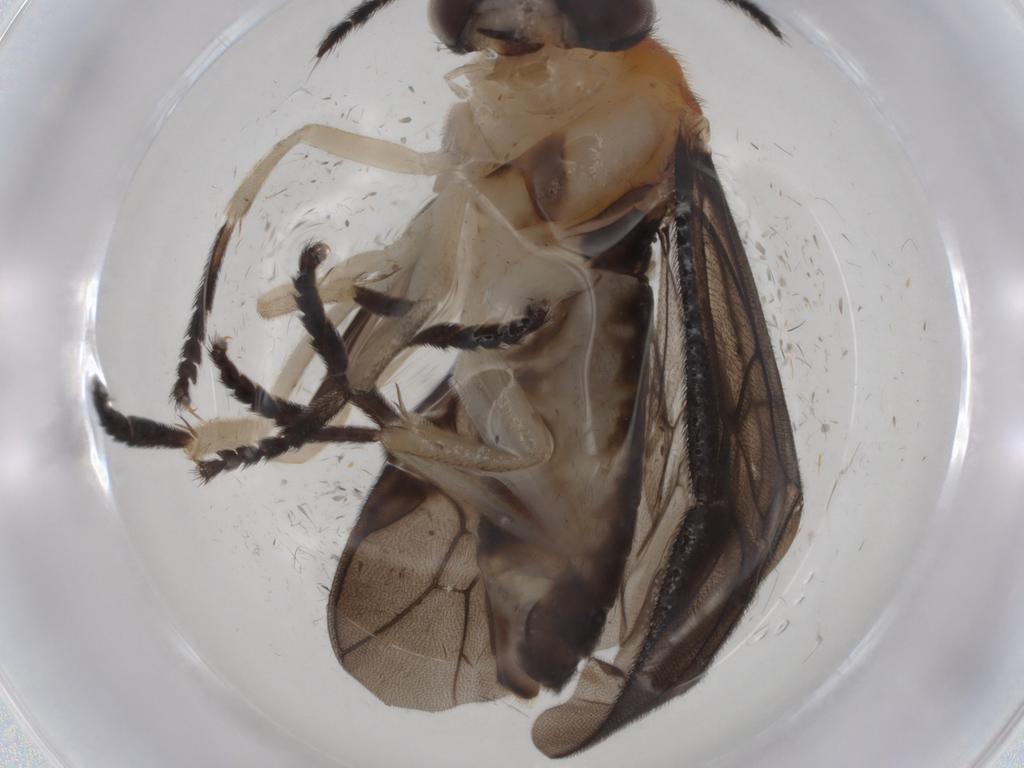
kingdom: Animalia
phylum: Arthropoda
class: Insecta
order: Hymenoptera
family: Pergidae
